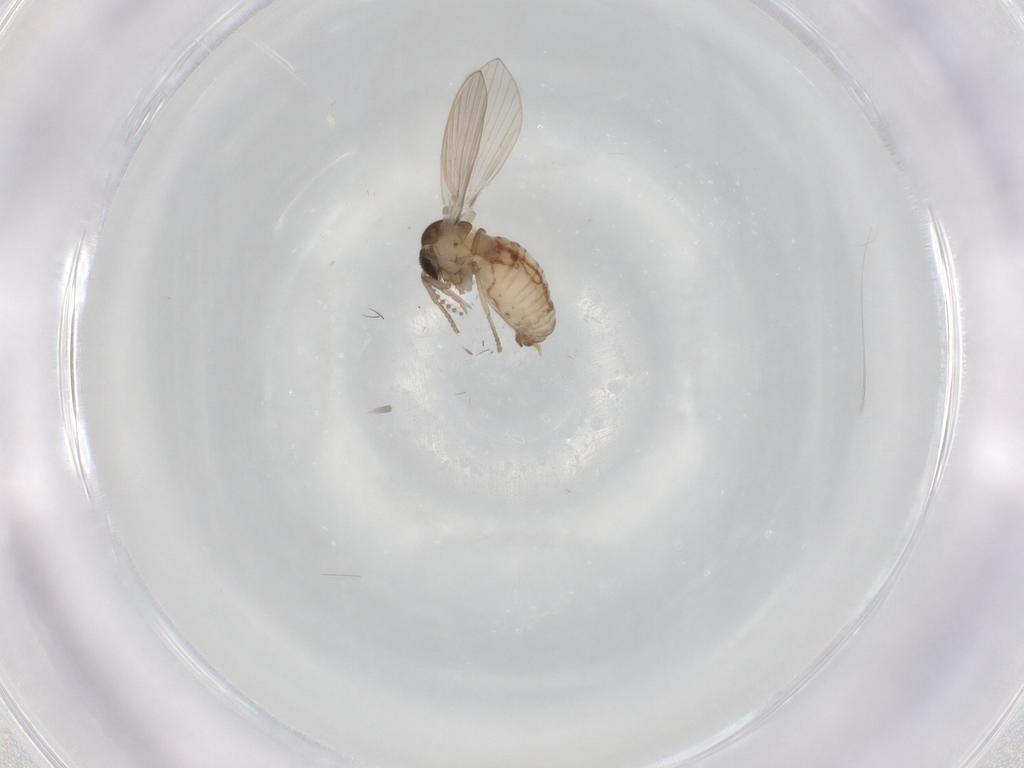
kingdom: Animalia
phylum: Arthropoda
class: Insecta
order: Diptera
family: Psychodidae
